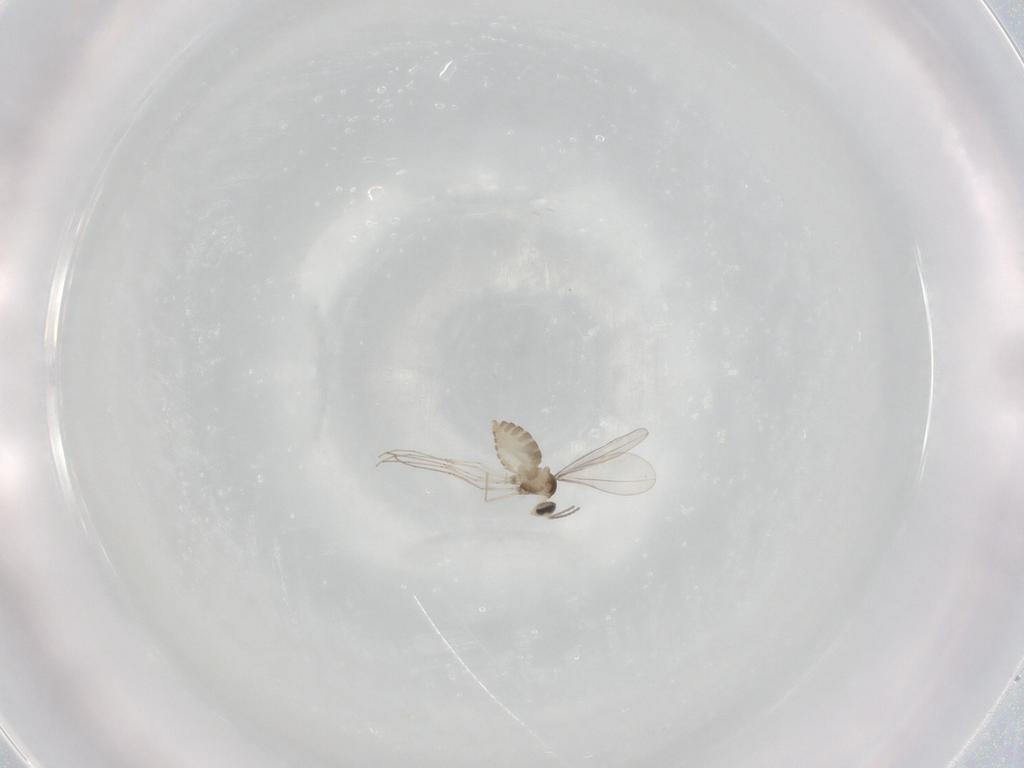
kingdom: Animalia
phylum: Arthropoda
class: Insecta
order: Diptera
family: Cecidomyiidae
